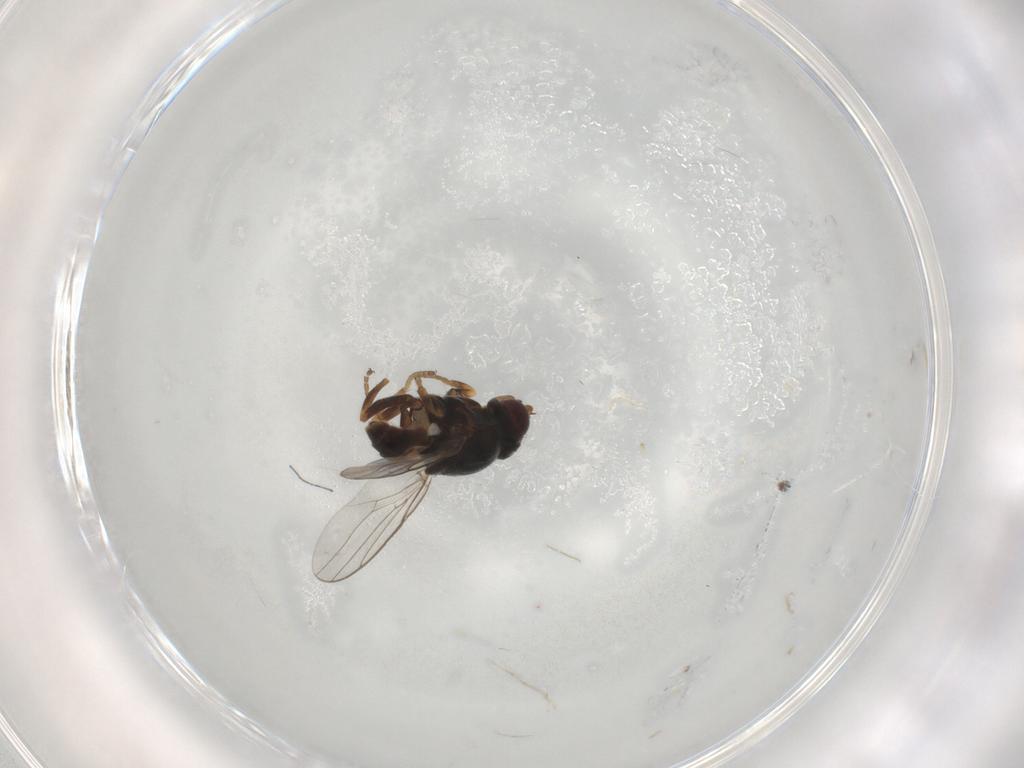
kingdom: Animalia
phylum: Arthropoda
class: Insecta
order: Diptera
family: Chloropidae
